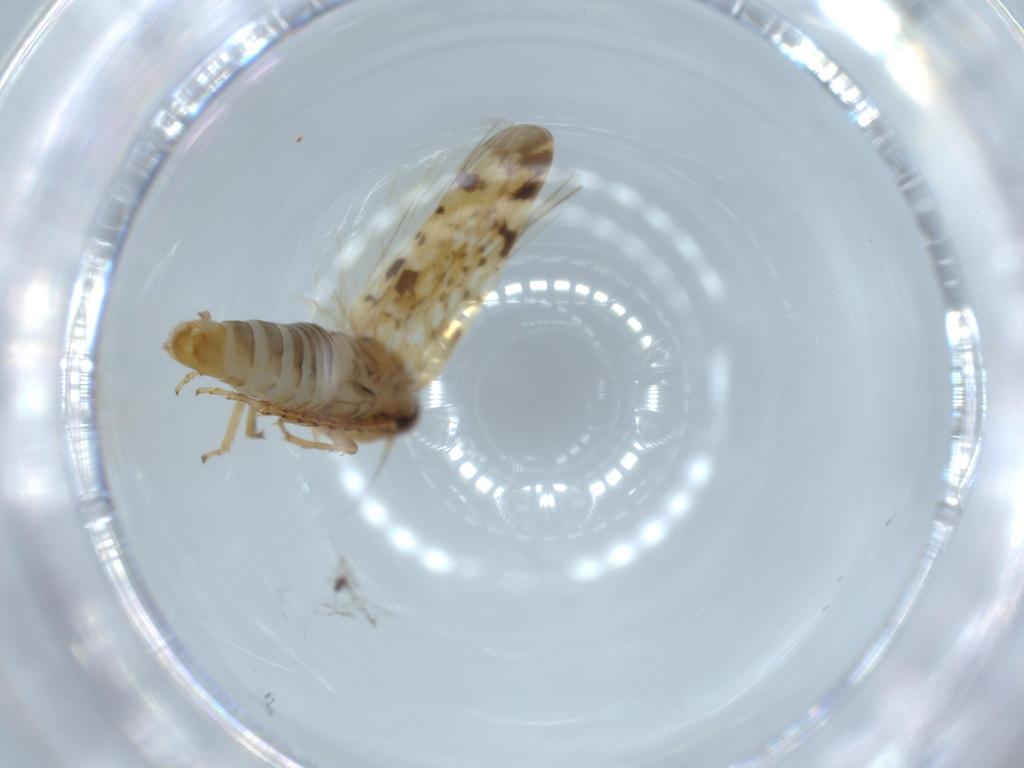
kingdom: Animalia
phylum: Arthropoda
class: Insecta
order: Hemiptera
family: Cicadellidae
